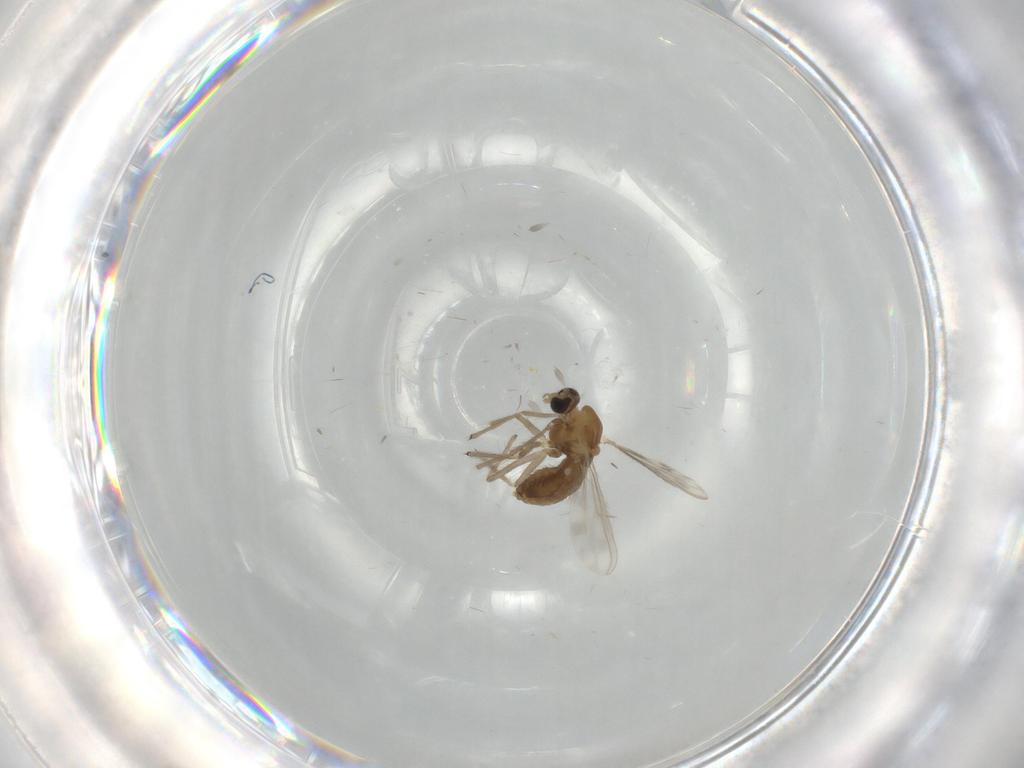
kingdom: Animalia
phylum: Arthropoda
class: Insecta
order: Diptera
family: Chironomidae
